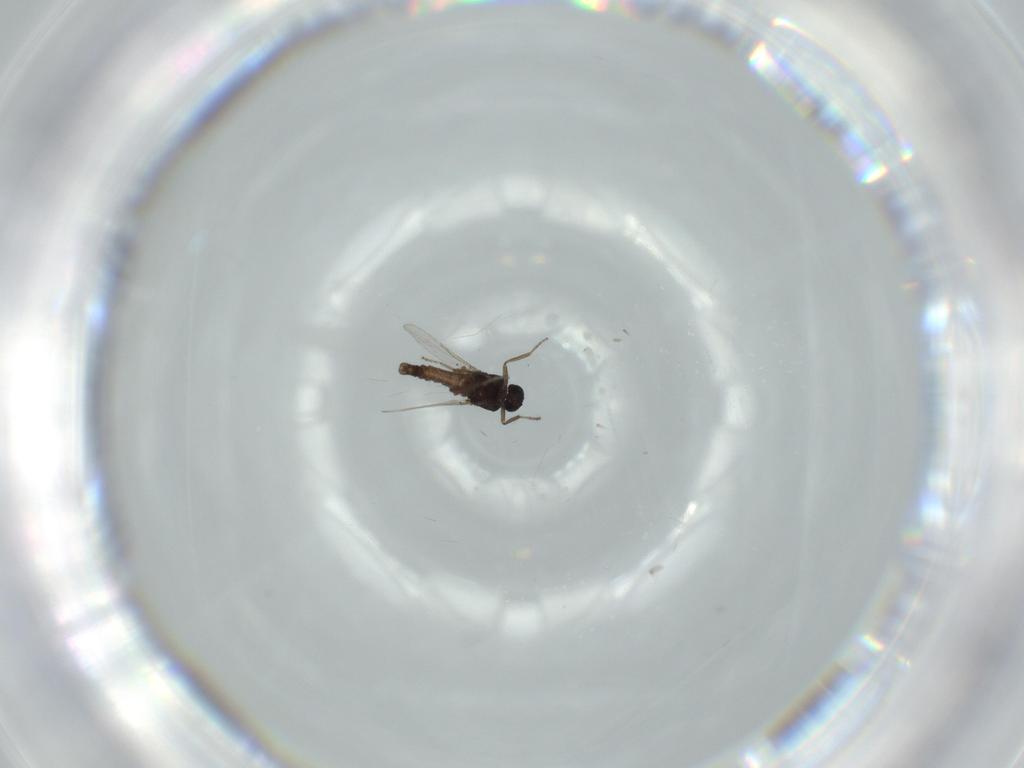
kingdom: Animalia
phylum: Arthropoda
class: Insecta
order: Diptera
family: Ceratopogonidae
